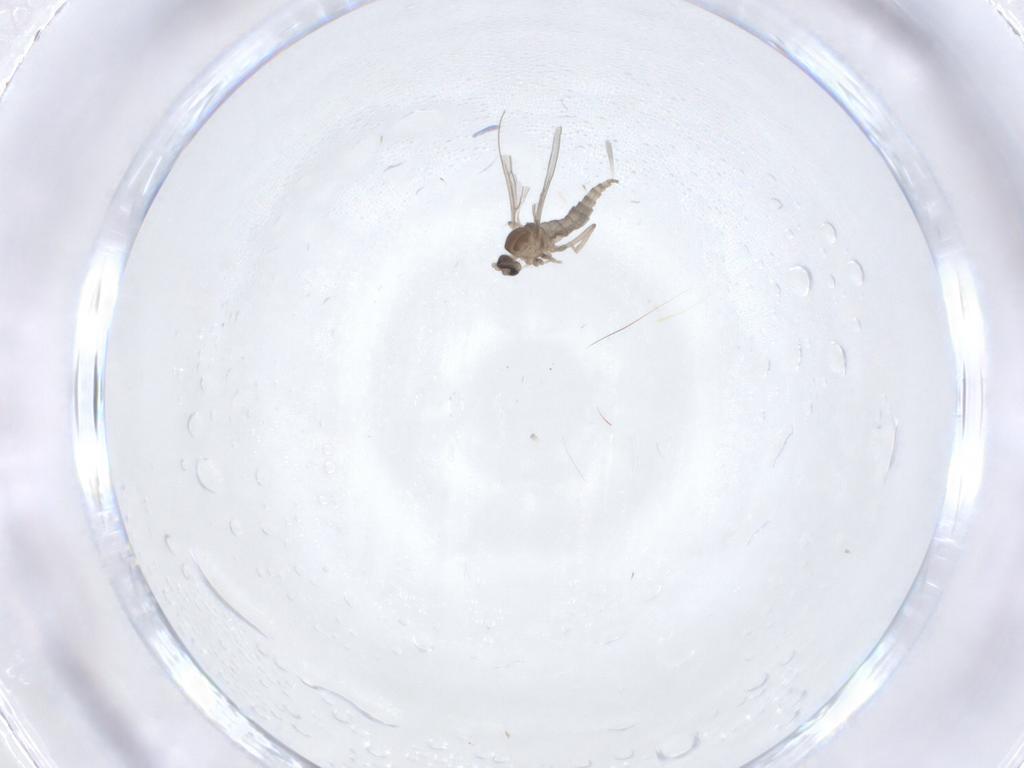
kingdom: Animalia
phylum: Arthropoda
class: Insecta
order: Diptera
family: Cecidomyiidae
